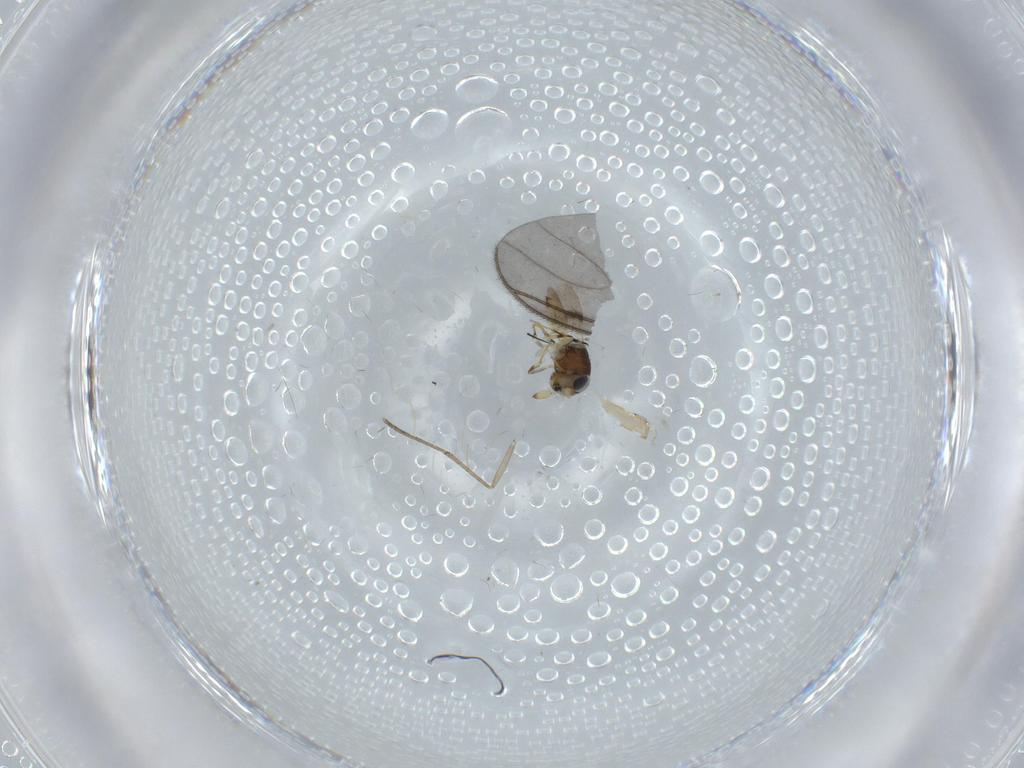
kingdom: Animalia
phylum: Arthropoda
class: Insecta
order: Hymenoptera
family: Scelionidae
